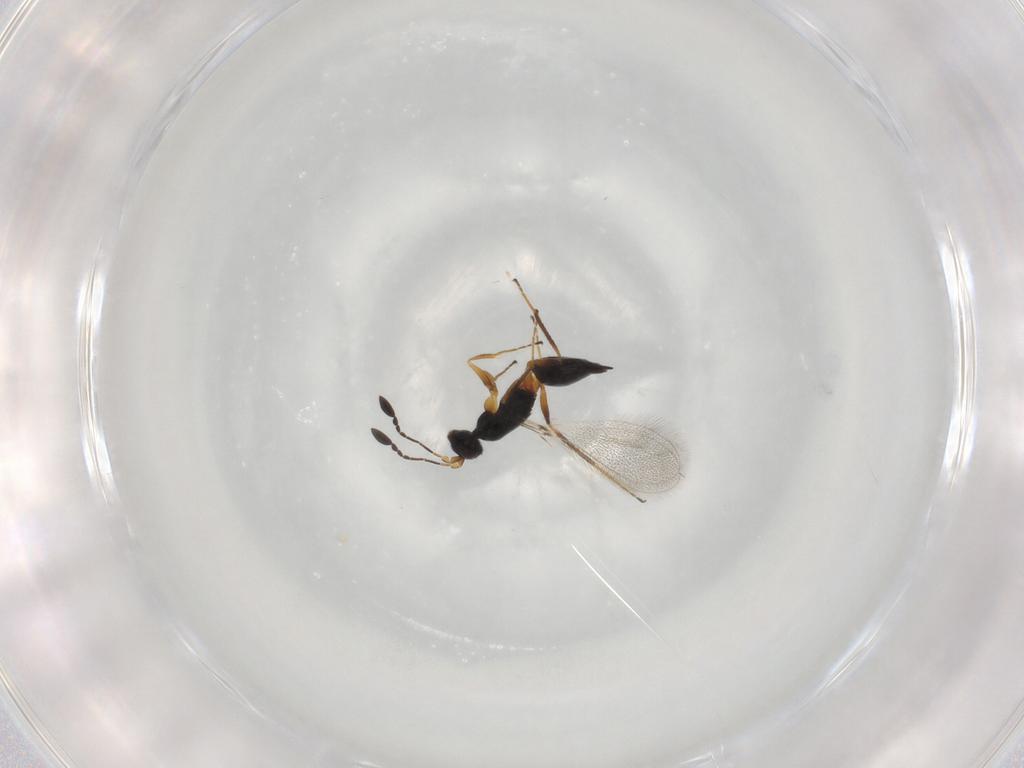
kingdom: Animalia
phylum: Arthropoda
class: Insecta
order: Hymenoptera
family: Mymaridae
